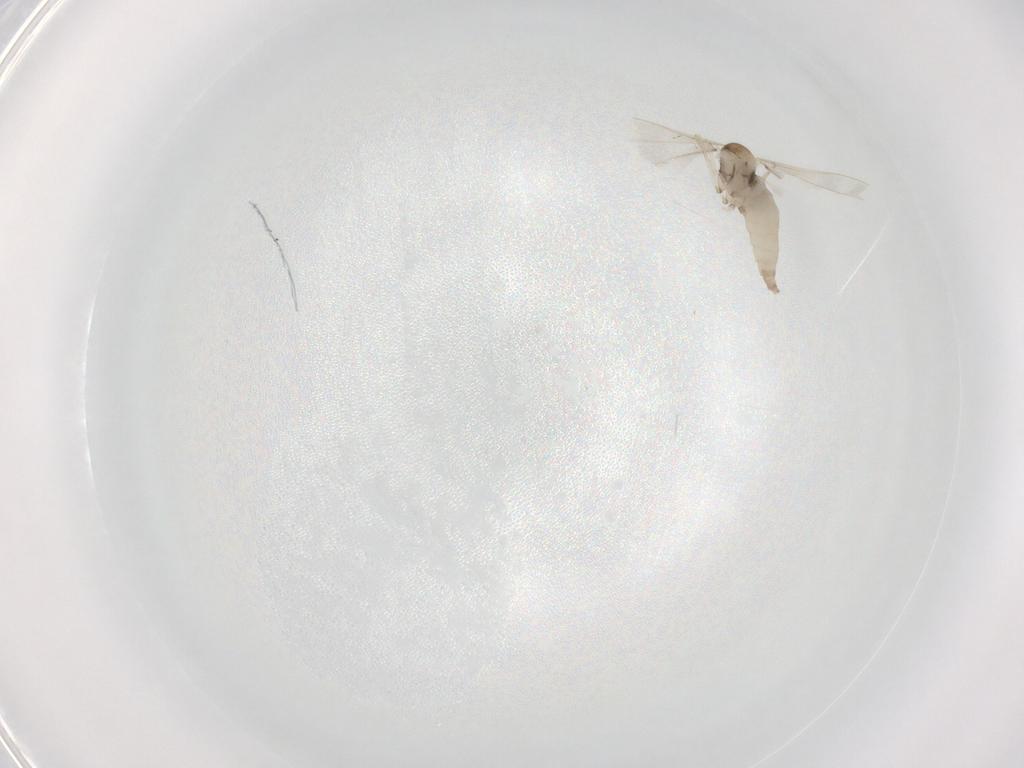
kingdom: Animalia
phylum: Arthropoda
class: Insecta
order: Diptera
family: Cecidomyiidae
